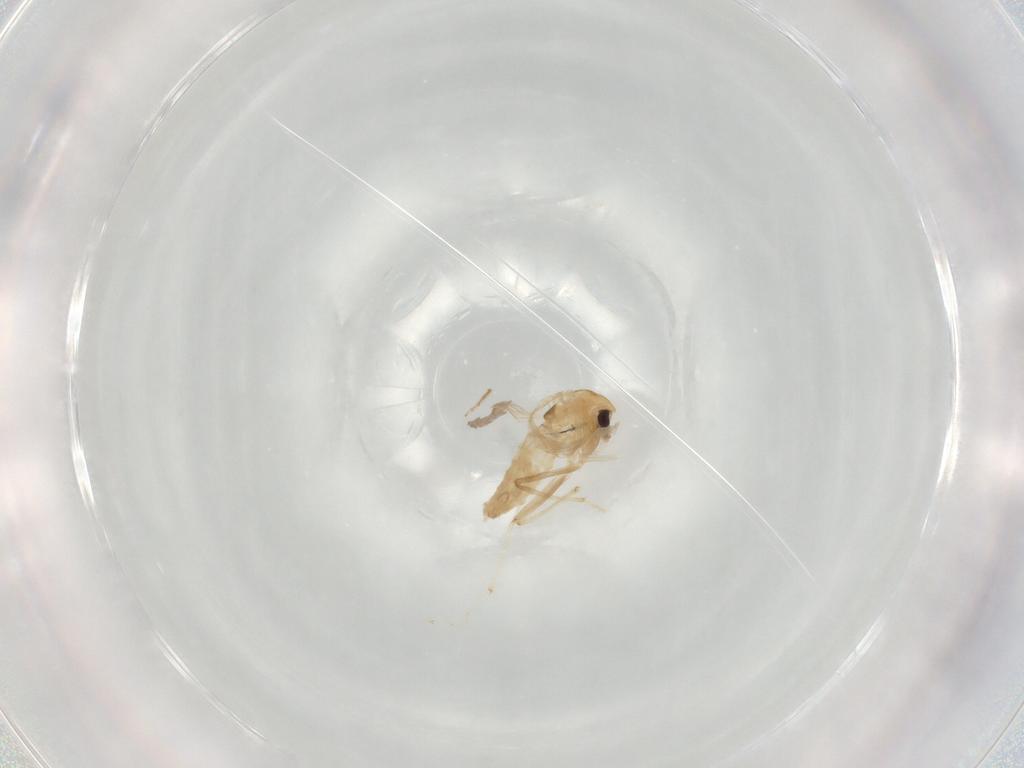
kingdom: Animalia
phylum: Arthropoda
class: Insecta
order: Diptera
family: Chironomidae
